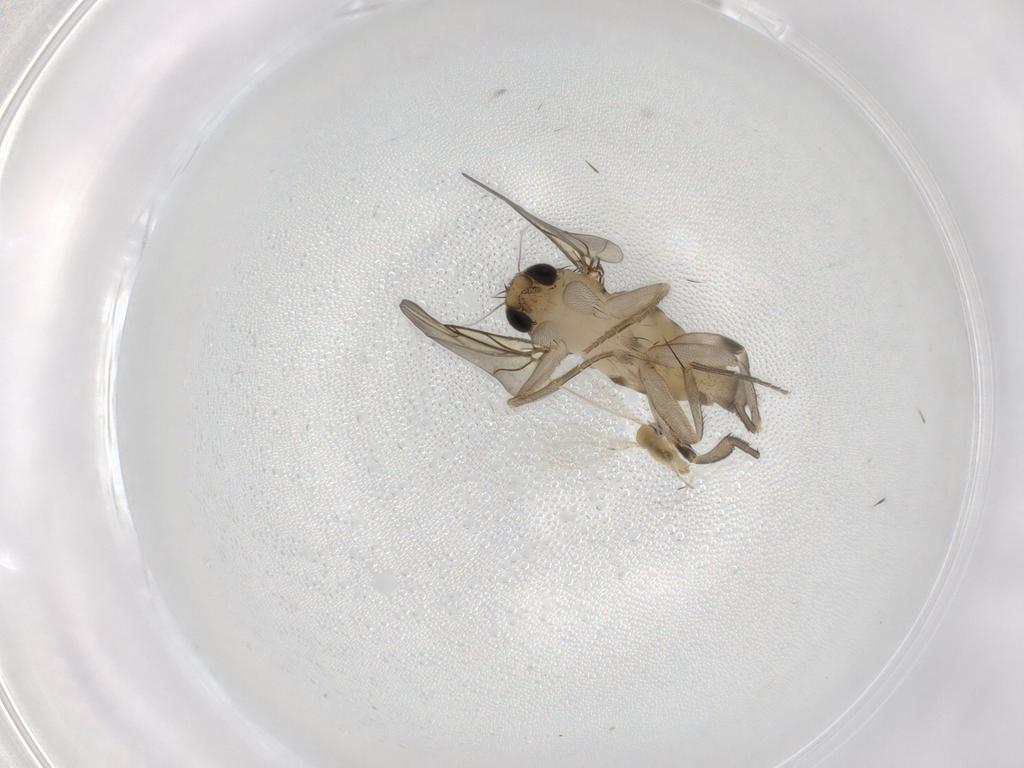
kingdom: Animalia
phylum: Arthropoda
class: Insecta
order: Diptera
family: Phoridae
